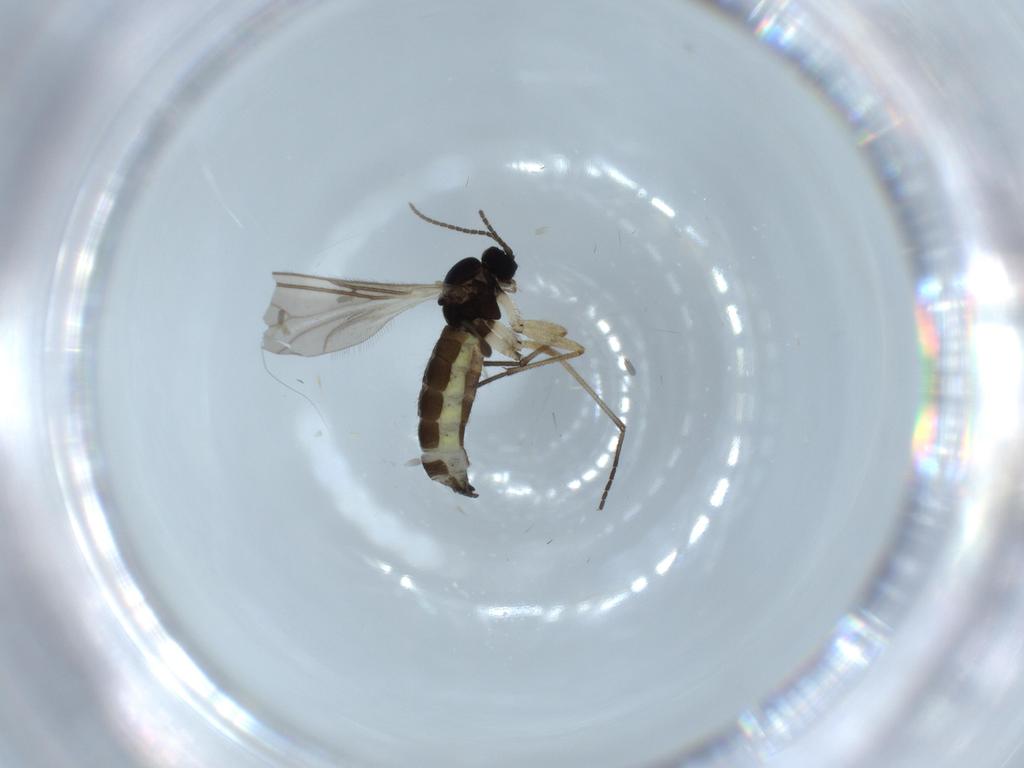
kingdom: Animalia
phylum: Arthropoda
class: Insecta
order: Diptera
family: Sciaridae
